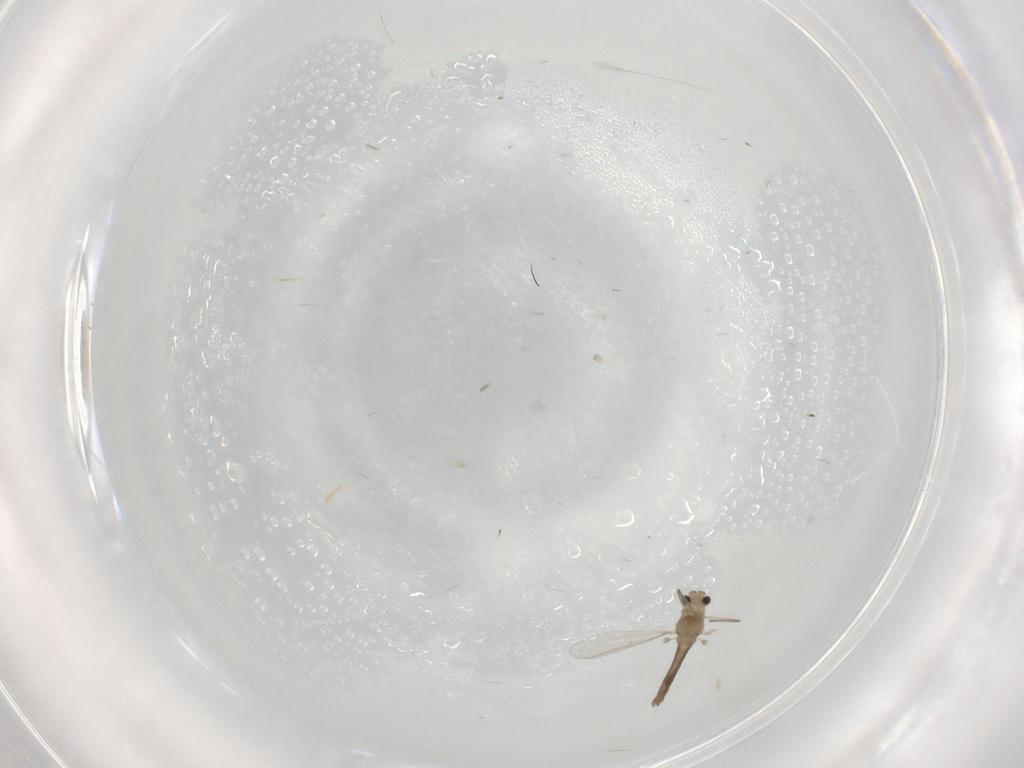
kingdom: Animalia
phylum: Arthropoda
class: Insecta
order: Diptera
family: Chironomidae
